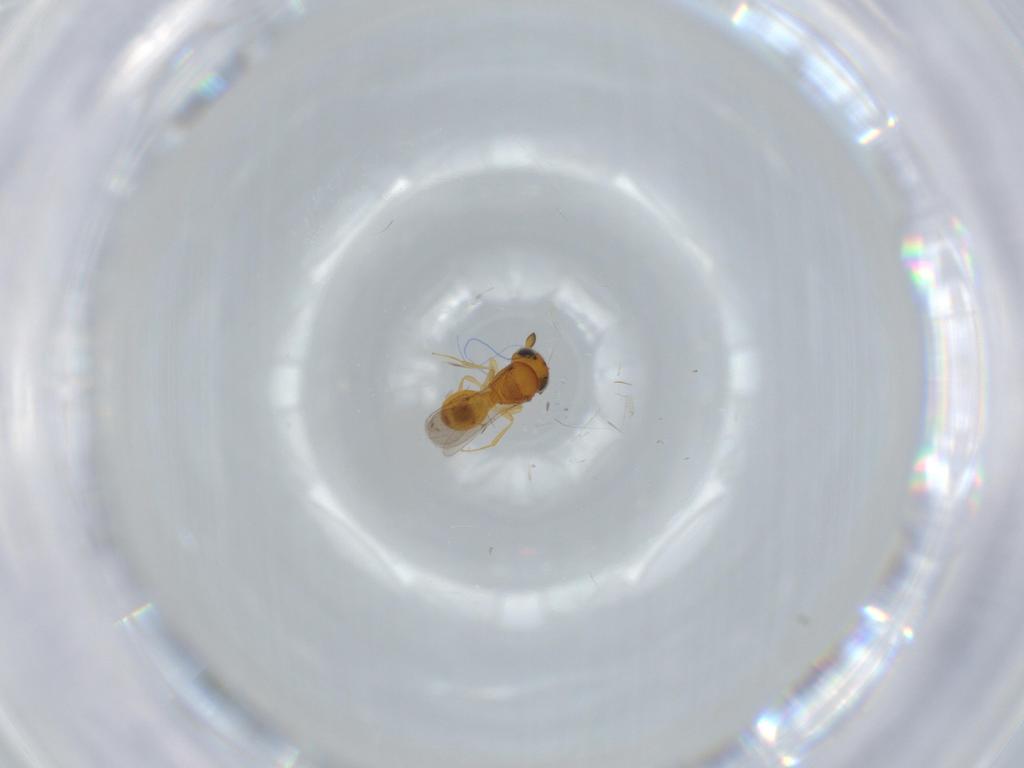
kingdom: Animalia
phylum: Arthropoda
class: Insecta
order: Hymenoptera
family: Scelionidae
